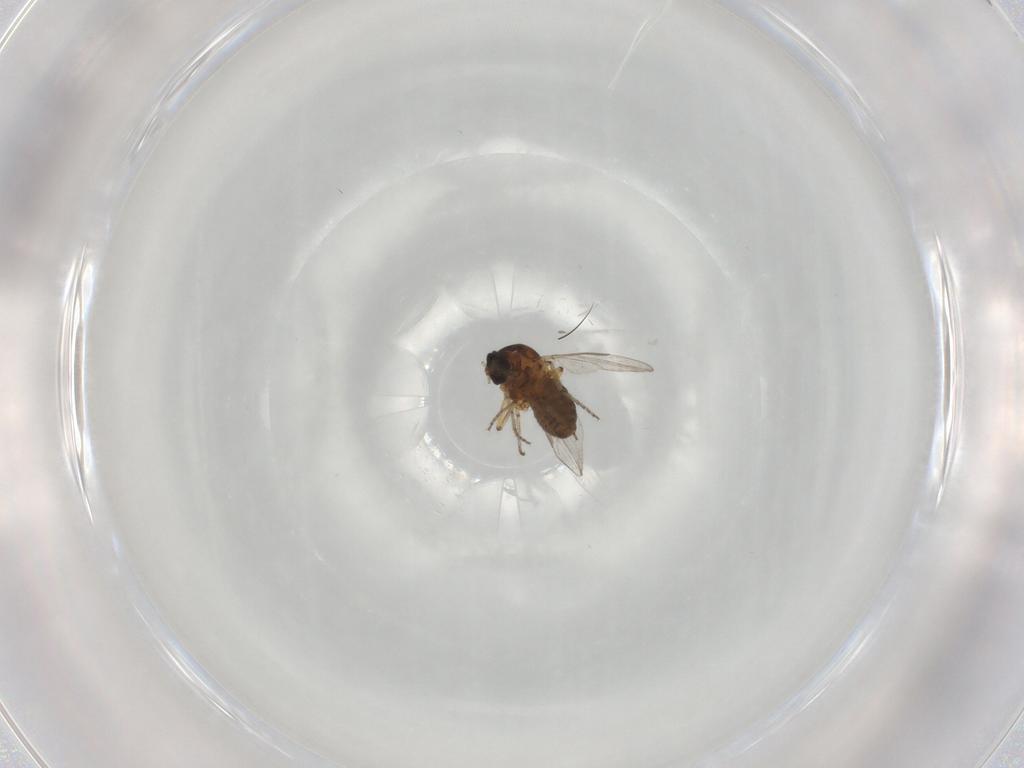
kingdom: Animalia
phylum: Arthropoda
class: Insecta
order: Diptera
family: Ceratopogonidae
